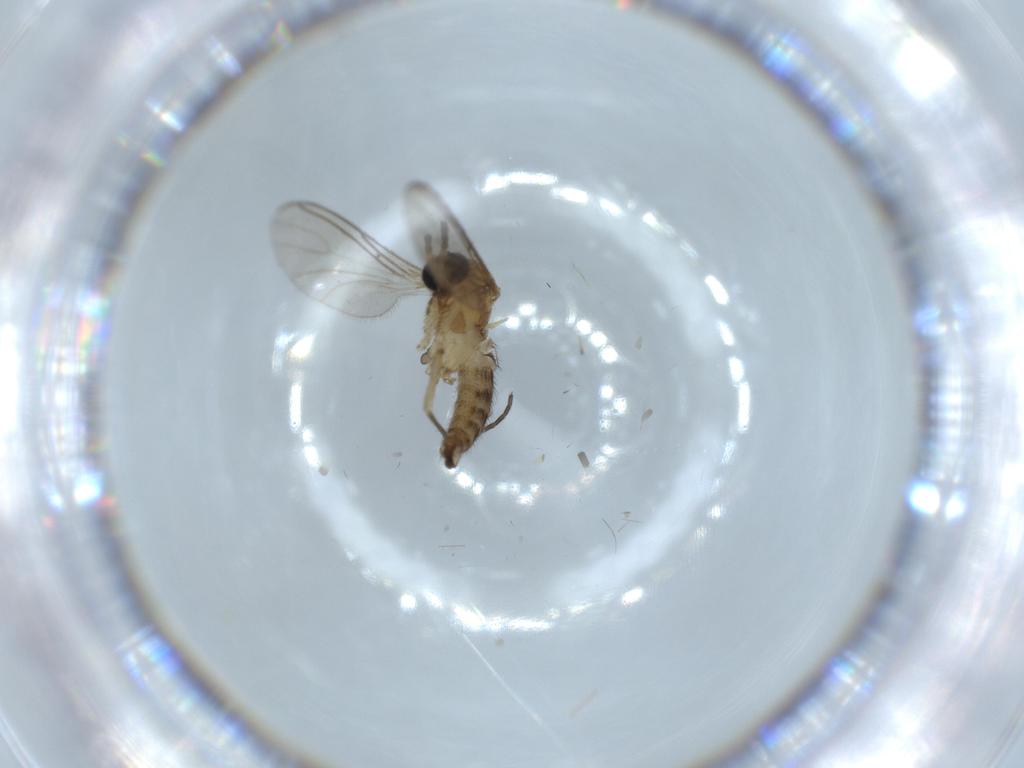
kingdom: Animalia
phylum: Arthropoda
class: Insecta
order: Diptera
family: Sciaridae
